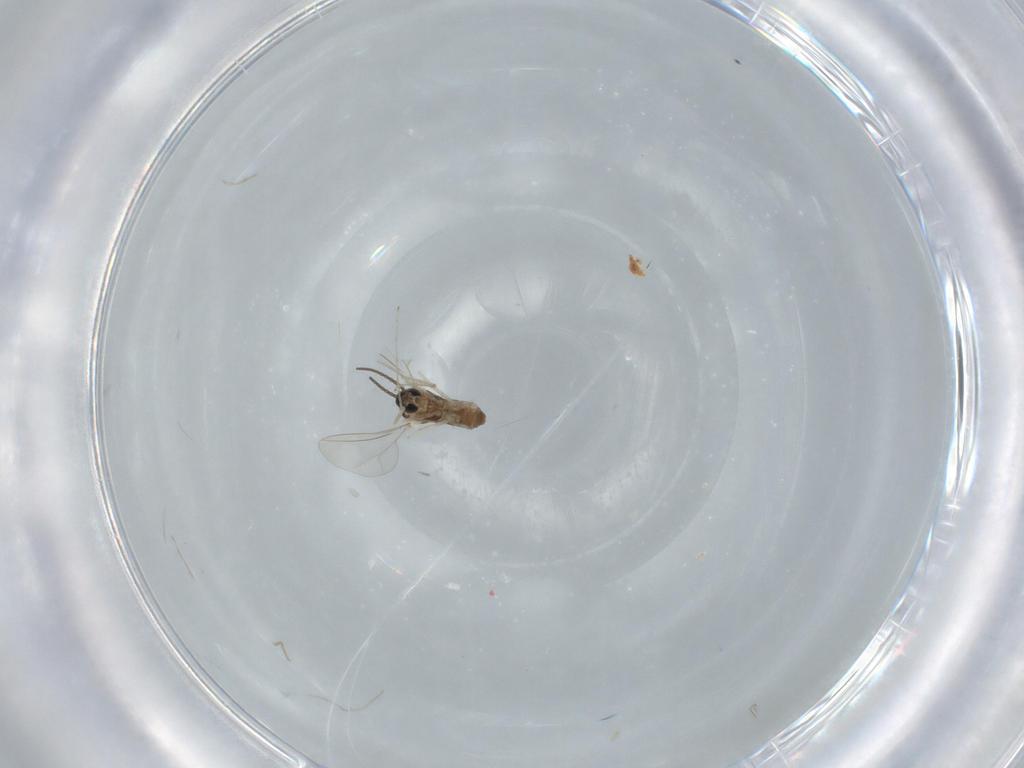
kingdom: Animalia
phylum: Arthropoda
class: Insecta
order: Diptera
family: Cecidomyiidae
